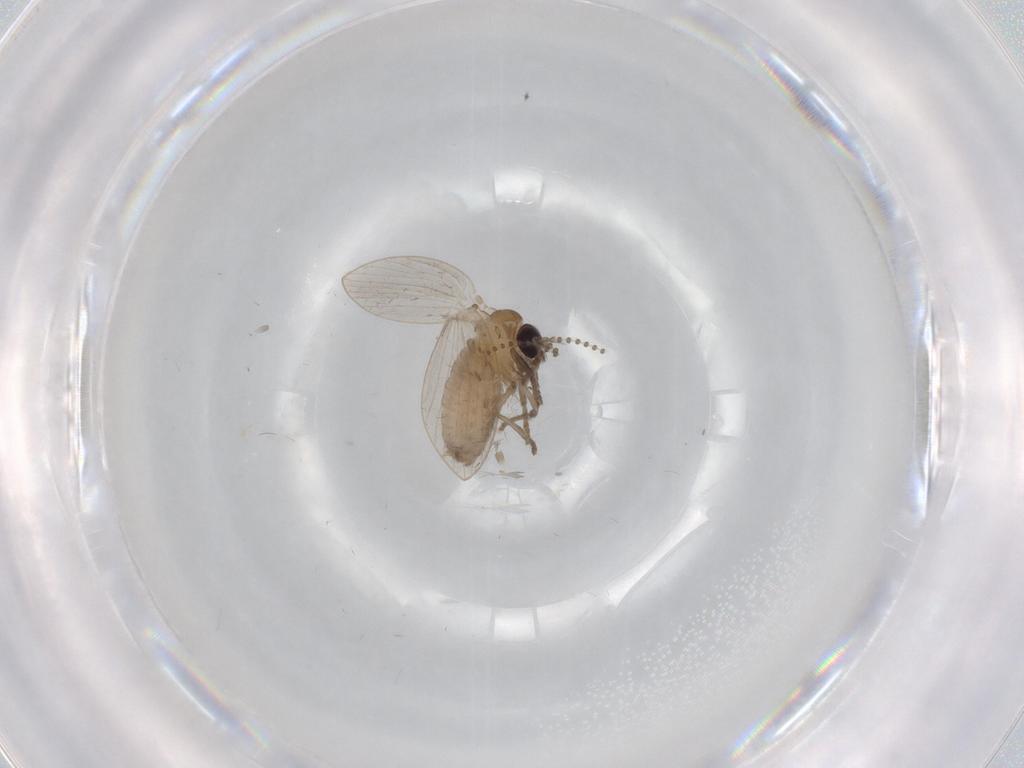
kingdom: Animalia
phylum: Arthropoda
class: Insecta
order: Diptera
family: Psychodidae
